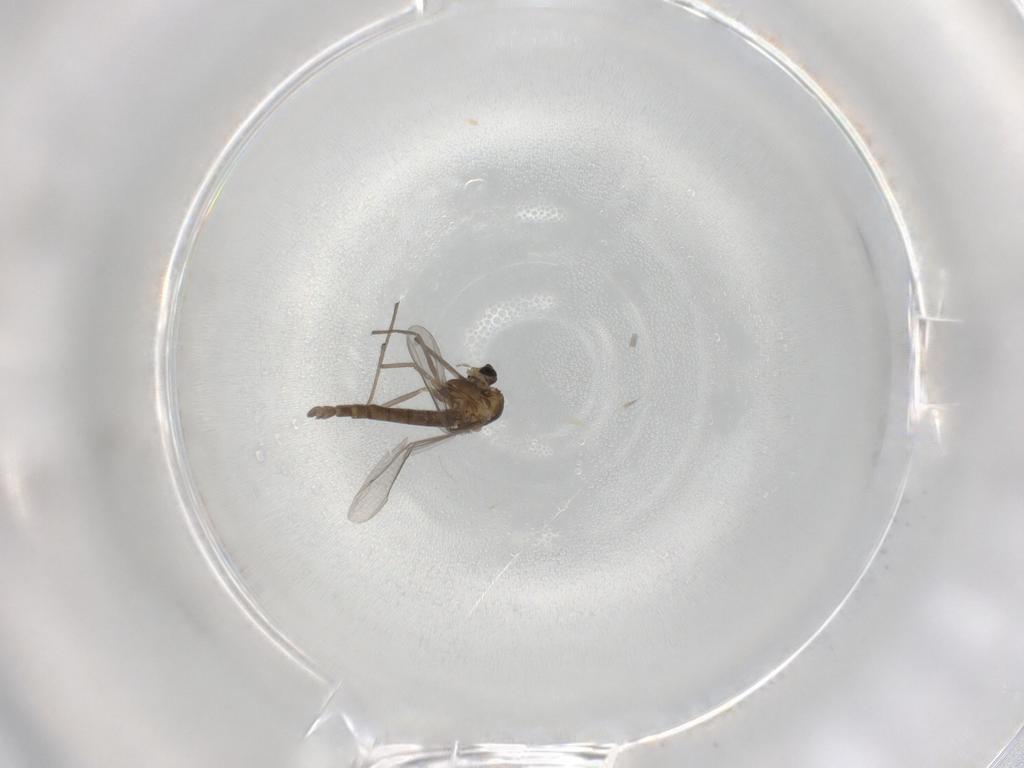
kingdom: Animalia
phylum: Arthropoda
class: Insecta
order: Diptera
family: Chironomidae
